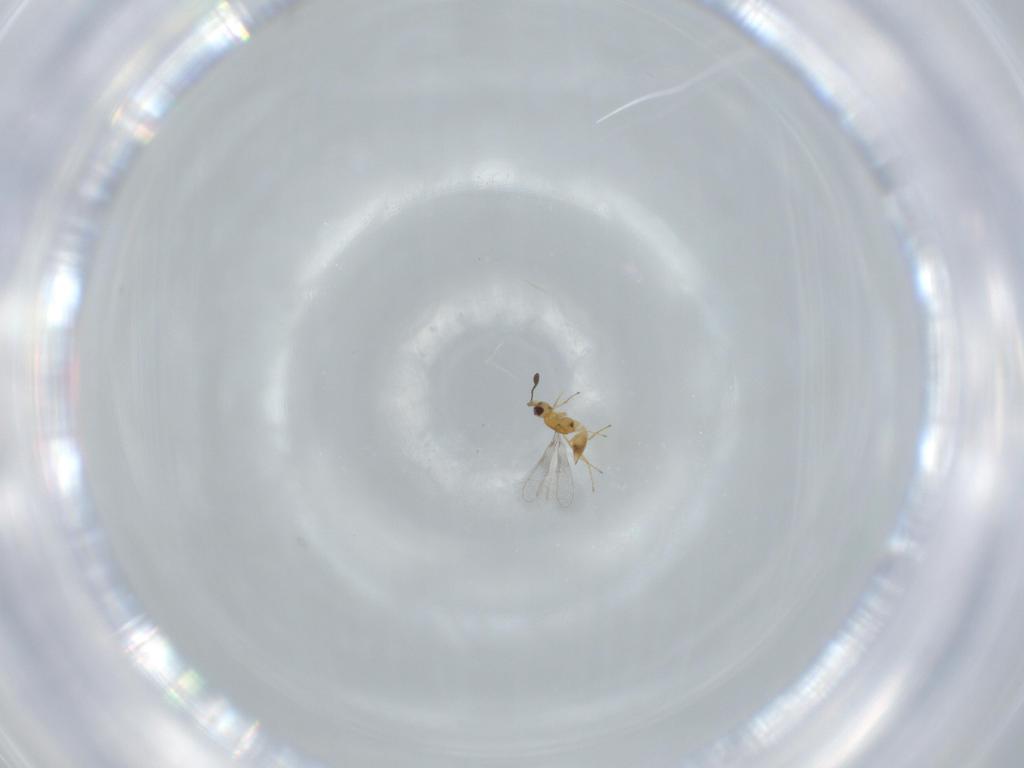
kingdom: Animalia
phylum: Arthropoda
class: Insecta
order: Hymenoptera
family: Mymaridae
